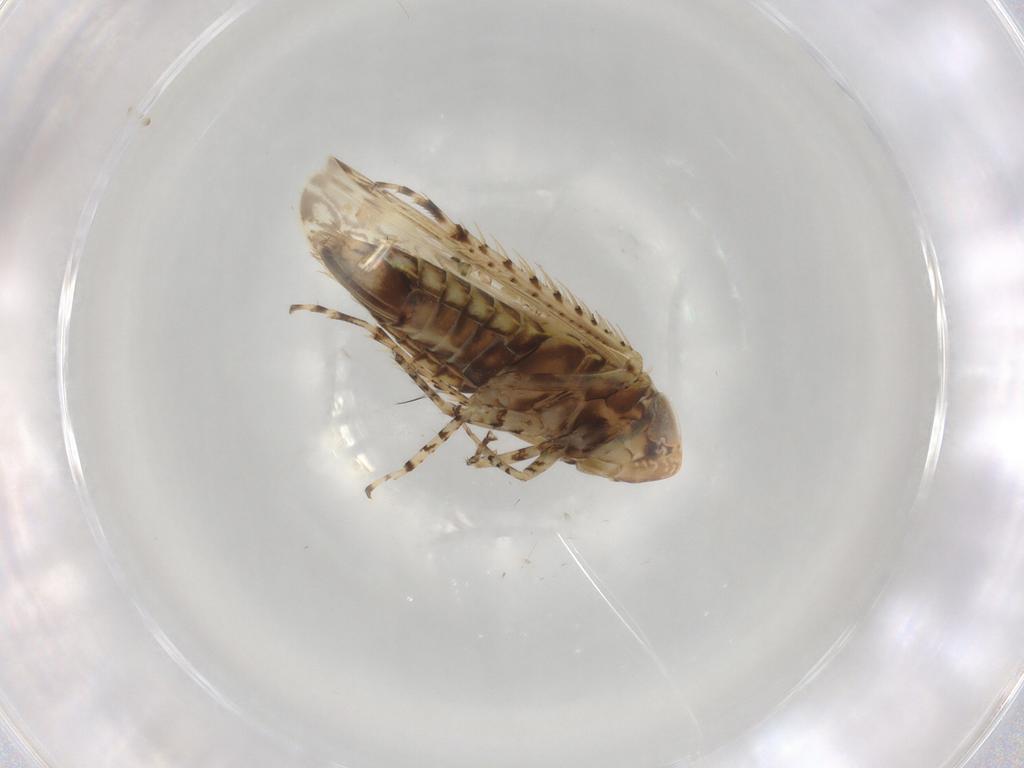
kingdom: Animalia
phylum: Arthropoda
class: Insecta
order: Hemiptera
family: Cicadellidae
